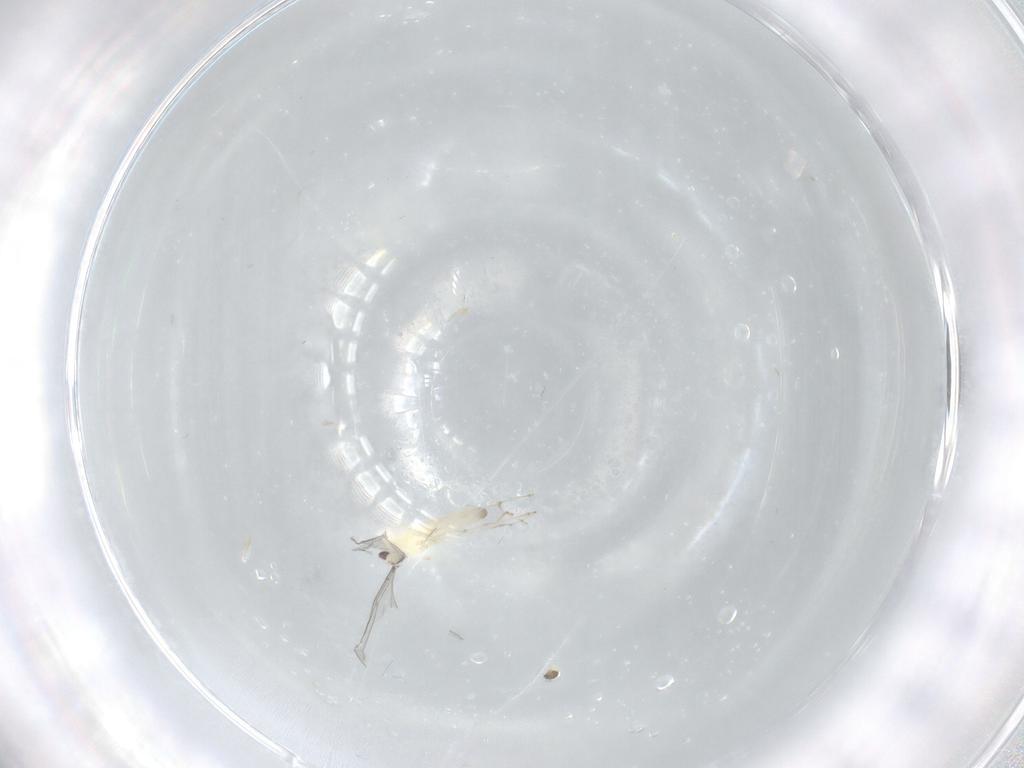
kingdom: Animalia
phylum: Arthropoda
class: Insecta
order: Diptera
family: Cecidomyiidae
